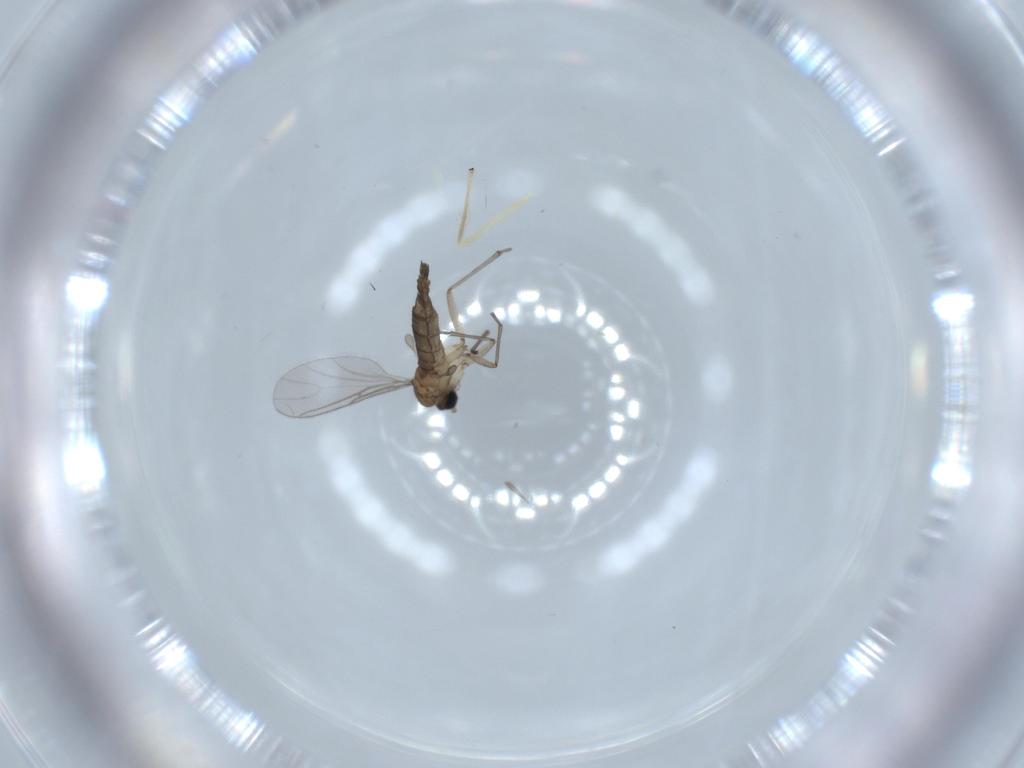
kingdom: Animalia
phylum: Arthropoda
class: Insecta
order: Diptera
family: Sciaridae
